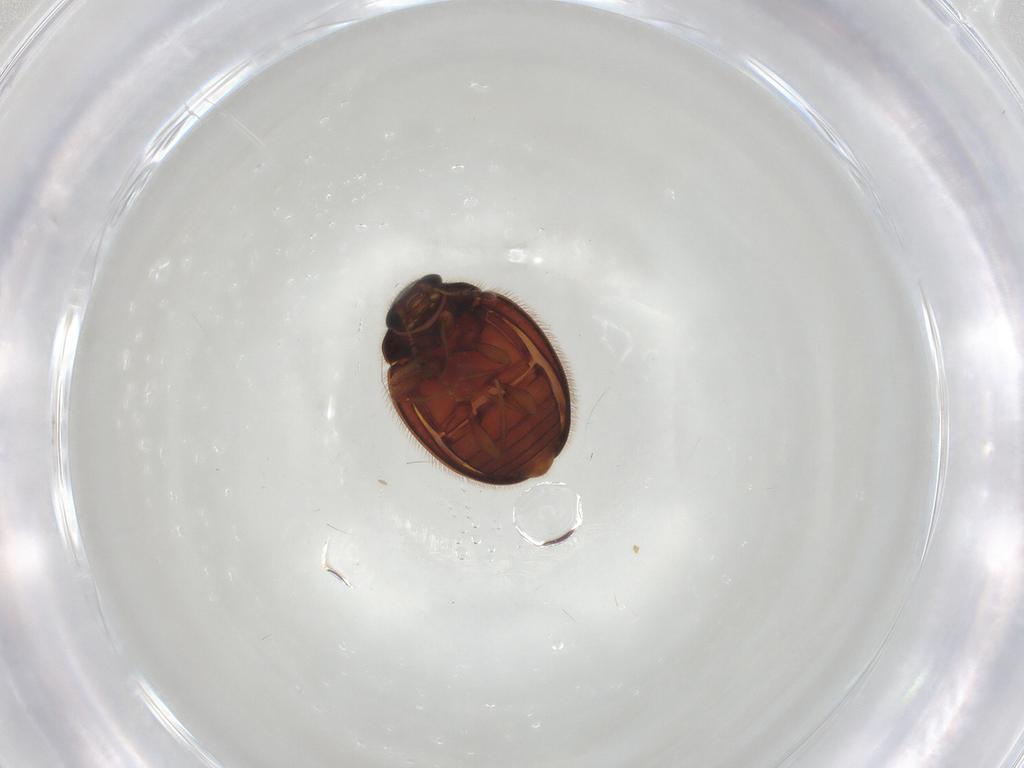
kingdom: Animalia
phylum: Arthropoda
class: Insecta
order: Coleoptera
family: Anamorphidae
